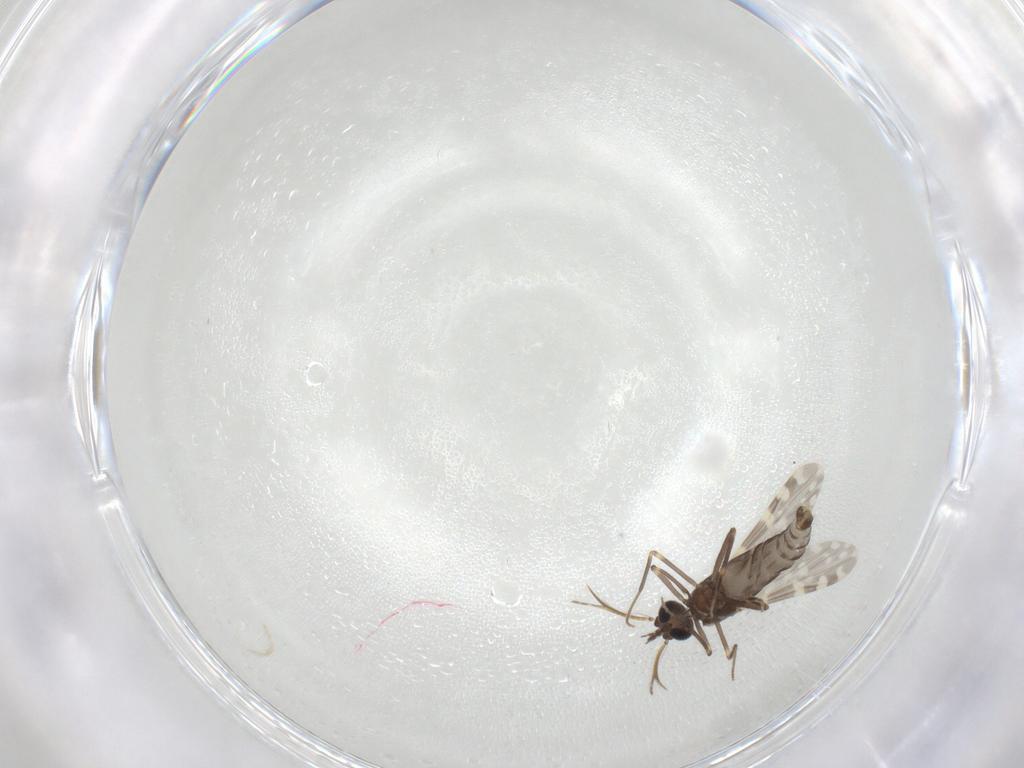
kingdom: Animalia
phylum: Arthropoda
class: Insecta
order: Diptera
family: Ceratopogonidae
